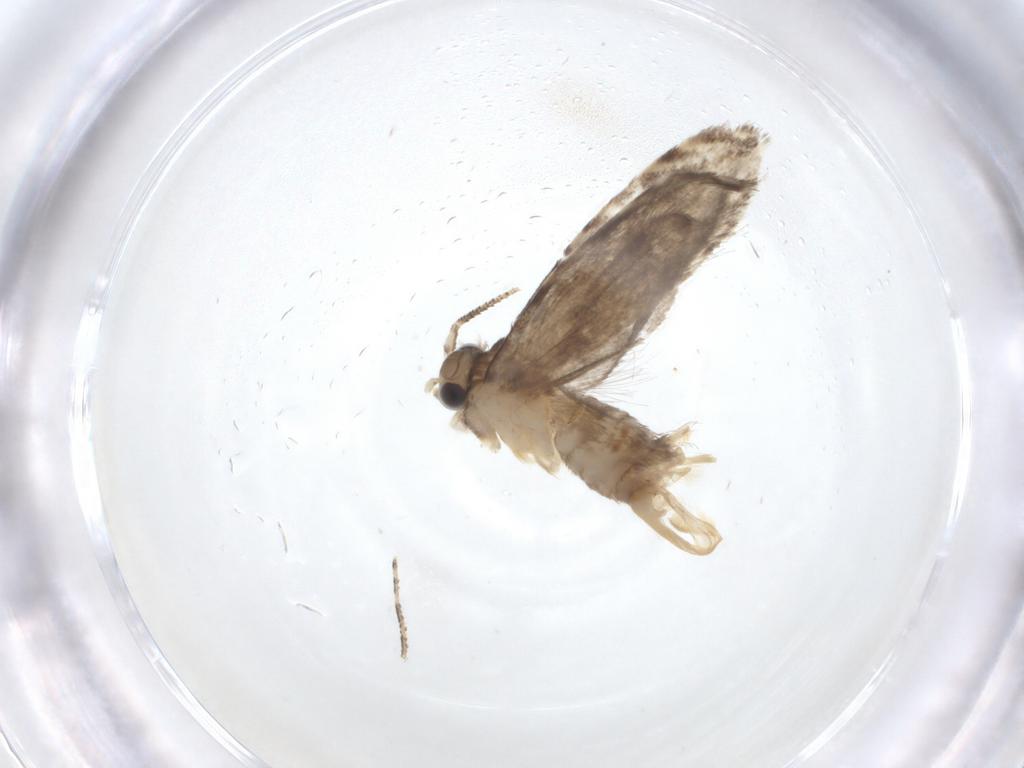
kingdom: Animalia
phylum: Arthropoda
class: Insecta
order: Lepidoptera
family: Tineidae
